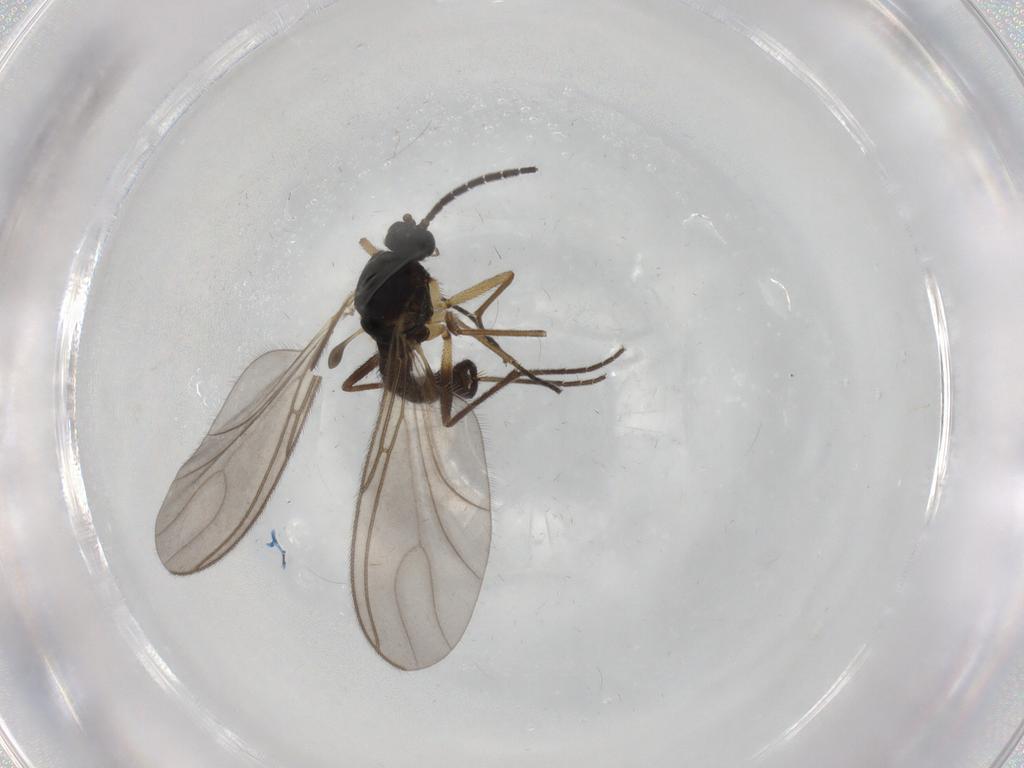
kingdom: Animalia
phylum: Arthropoda
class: Insecta
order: Diptera
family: Sciaridae
